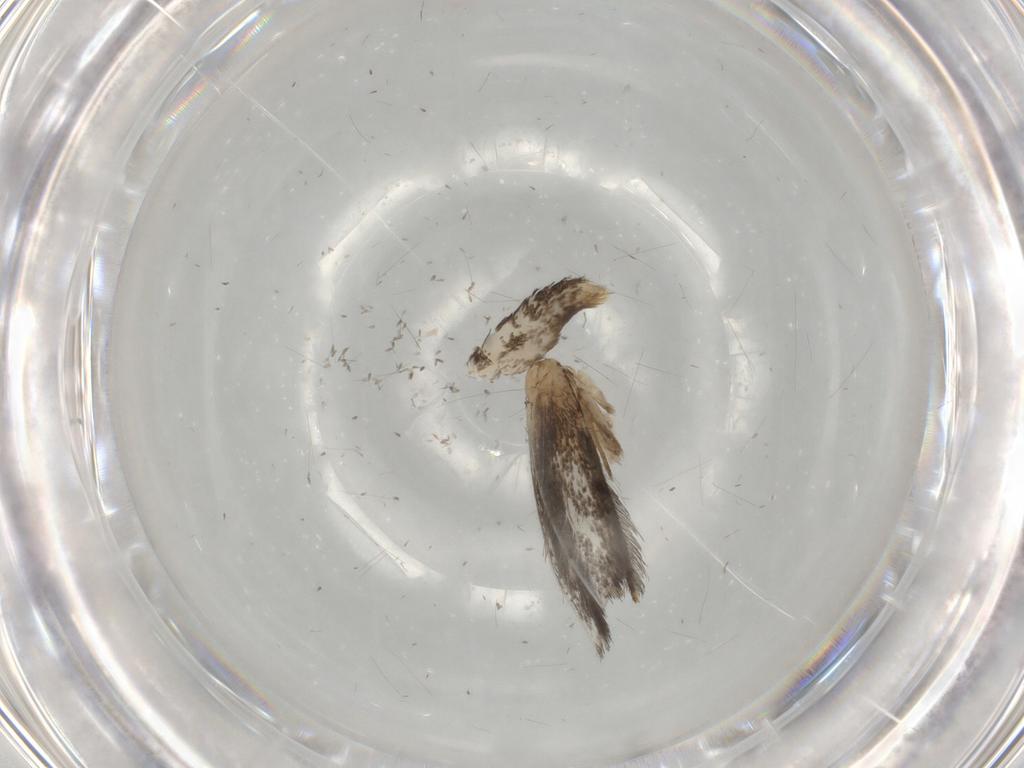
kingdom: Animalia
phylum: Arthropoda
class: Insecta
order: Lepidoptera
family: Tineidae
